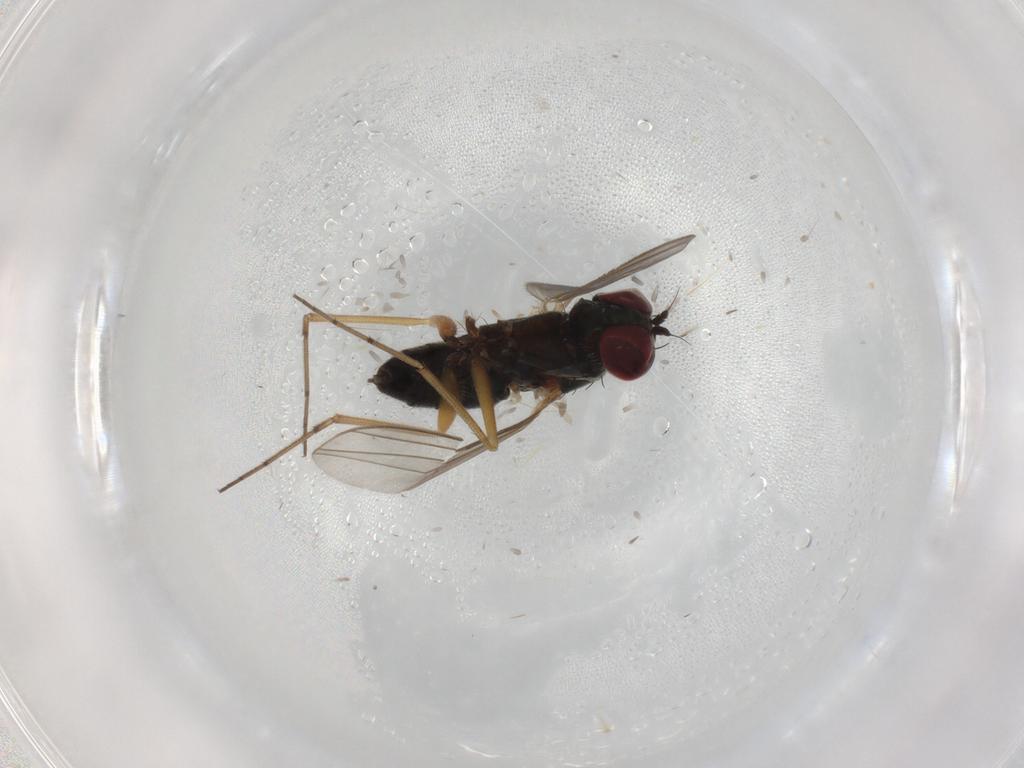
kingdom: Animalia
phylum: Arthropoda
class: Insecta
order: Diptera
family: Dolichopodidae
